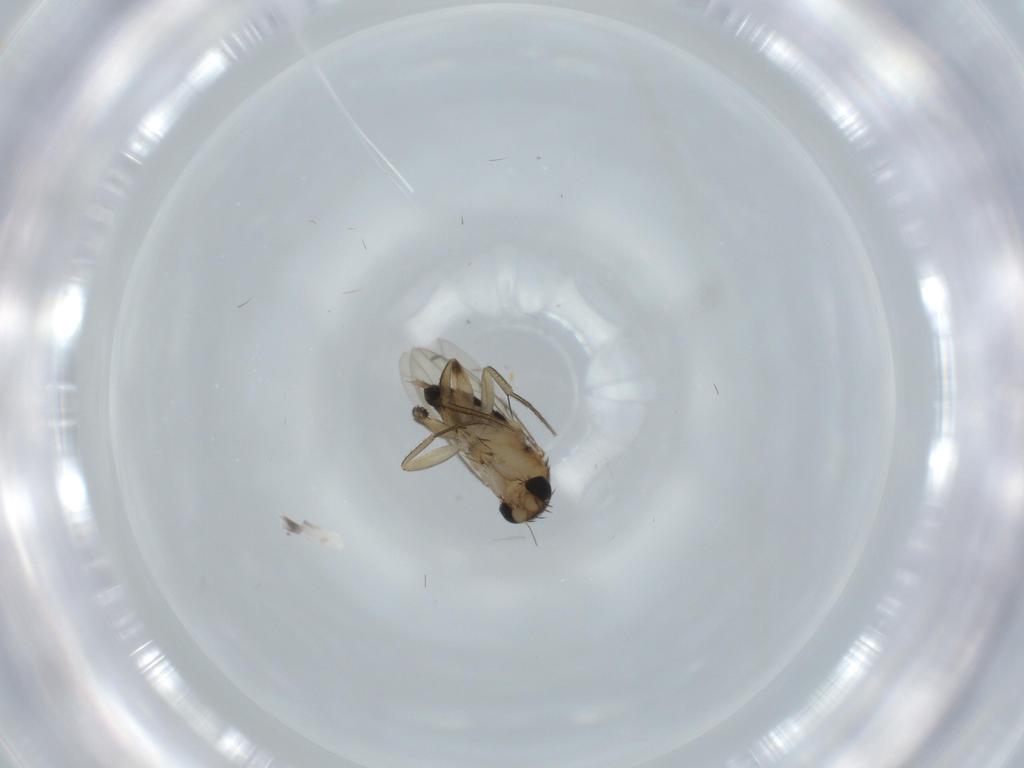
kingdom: Animalia
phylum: Arthropoda
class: Insecta
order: Diptera
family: Phoridae
